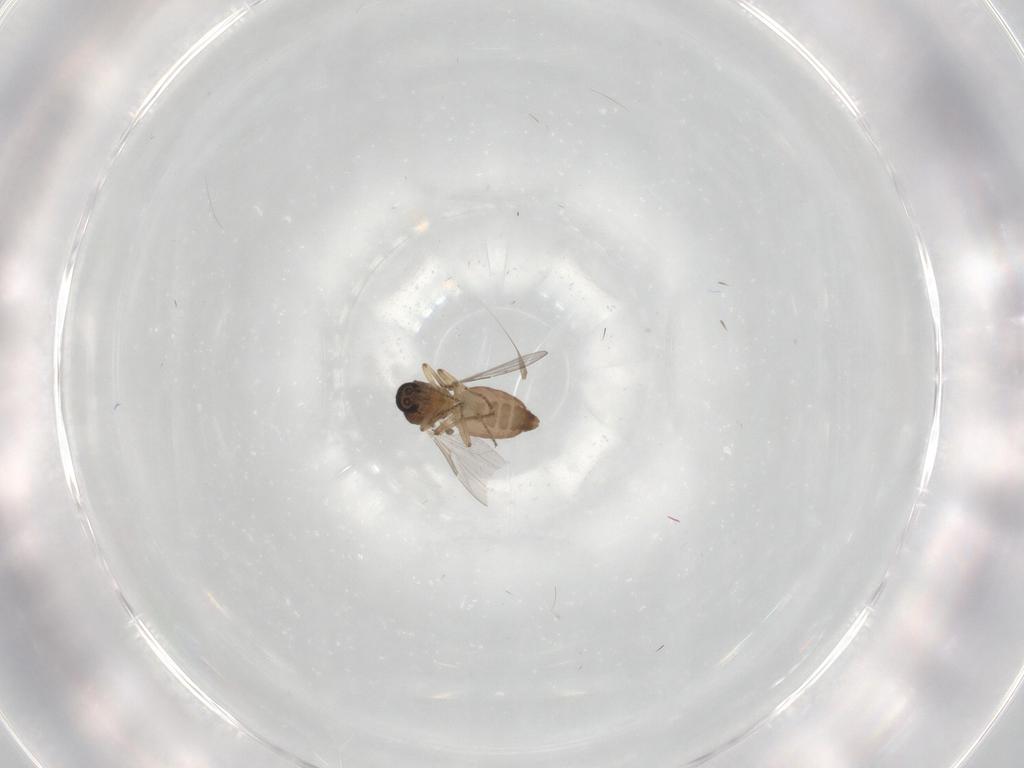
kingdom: Animalia
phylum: Arthropoda
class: Insecta
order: Diptera
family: Ceratopogonidae
